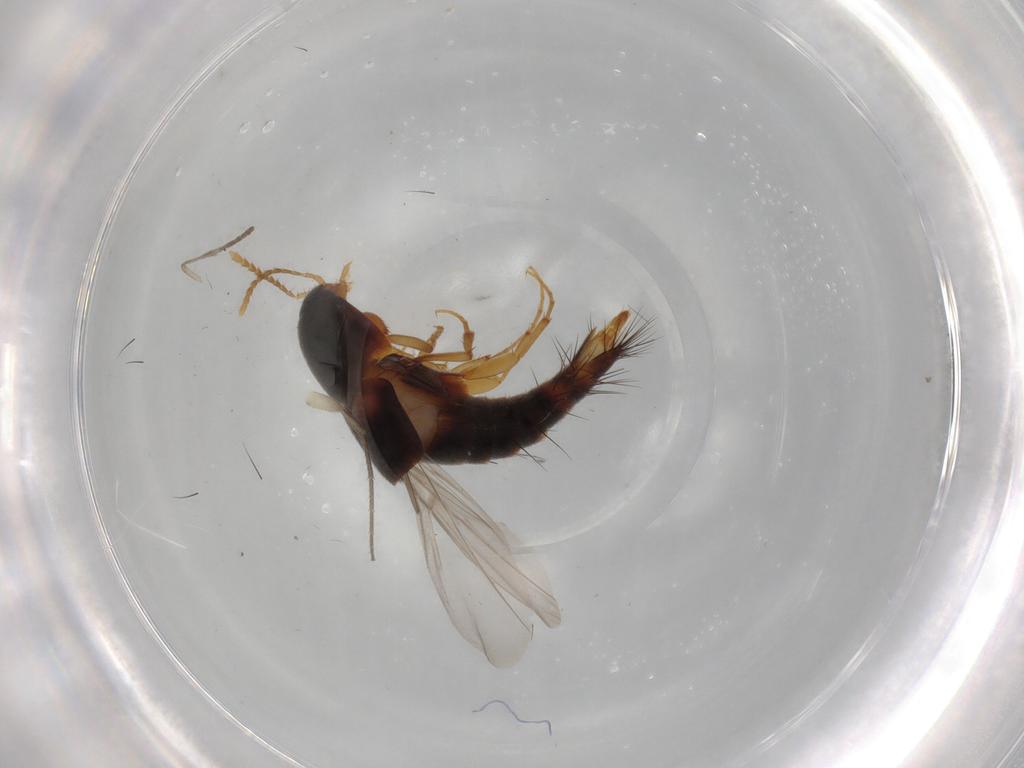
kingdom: Animalia
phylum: Arthropoda
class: Insecta
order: Coleoptera
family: Staphylinidae
